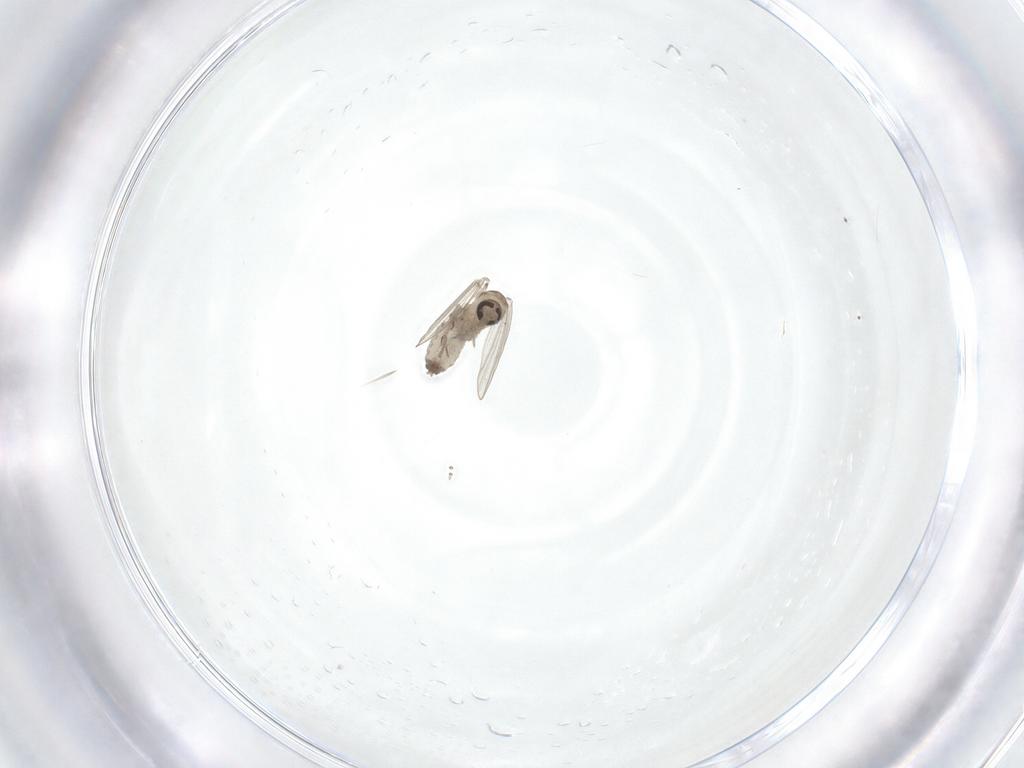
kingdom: Animalia
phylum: Arthropoda
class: Insecta
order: Diptera
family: Psychodidae
